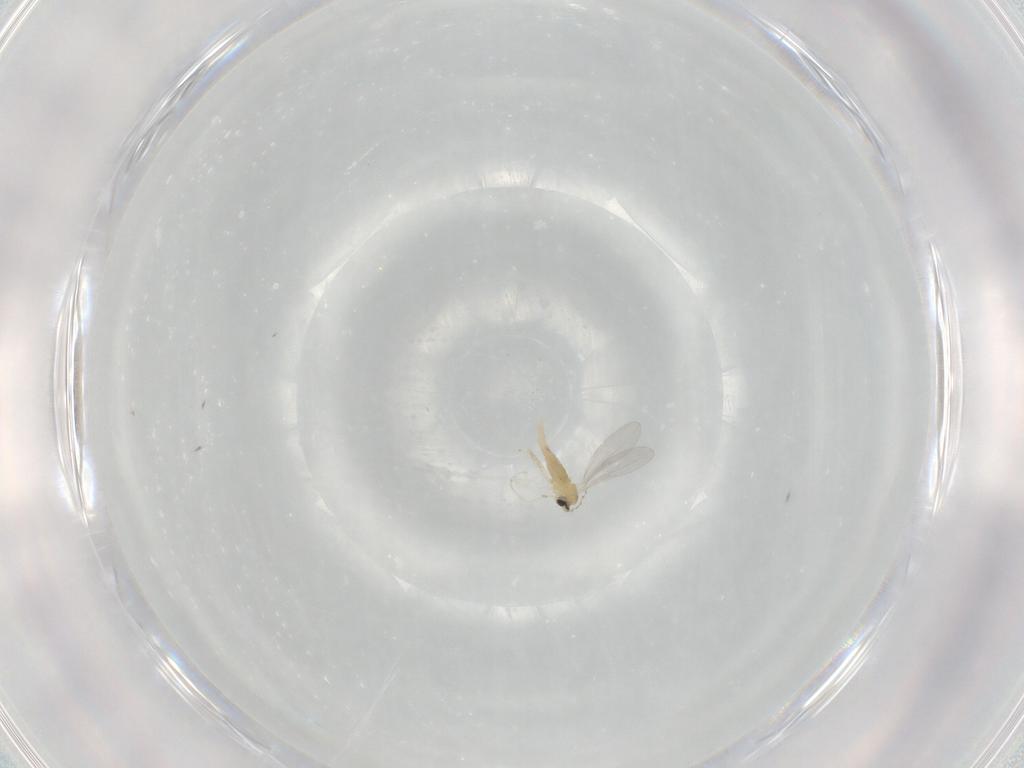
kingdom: Animalia
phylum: Arthropoda
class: Insecta
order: Diptera
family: Cecidomyiidae
